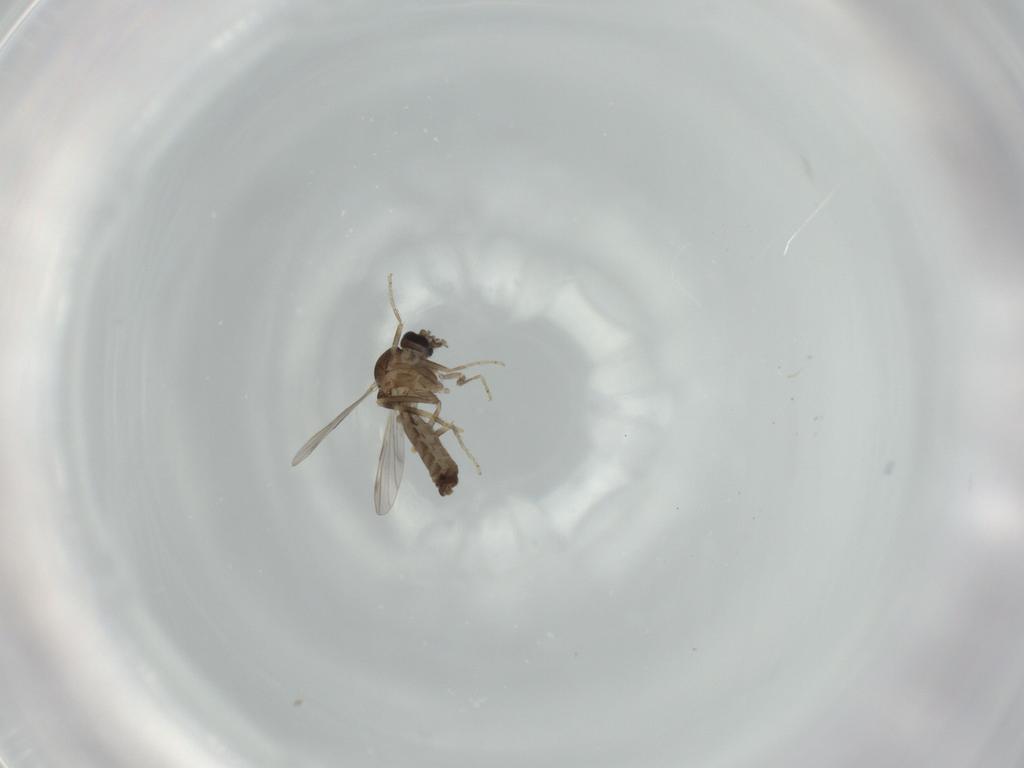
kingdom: Animalia
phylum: Arthropoda
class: Insecta
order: Diptera
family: Ceratopogonidae
